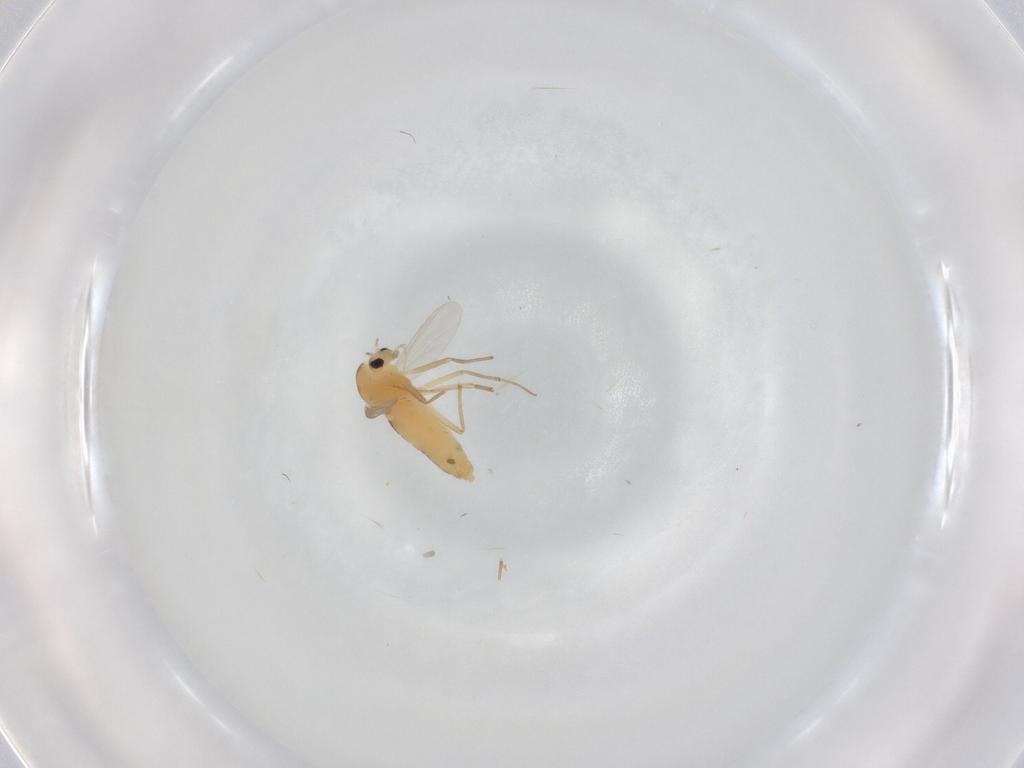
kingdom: Animalia
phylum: Arthropoda
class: Insecta
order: Diptera
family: Chironomidae
